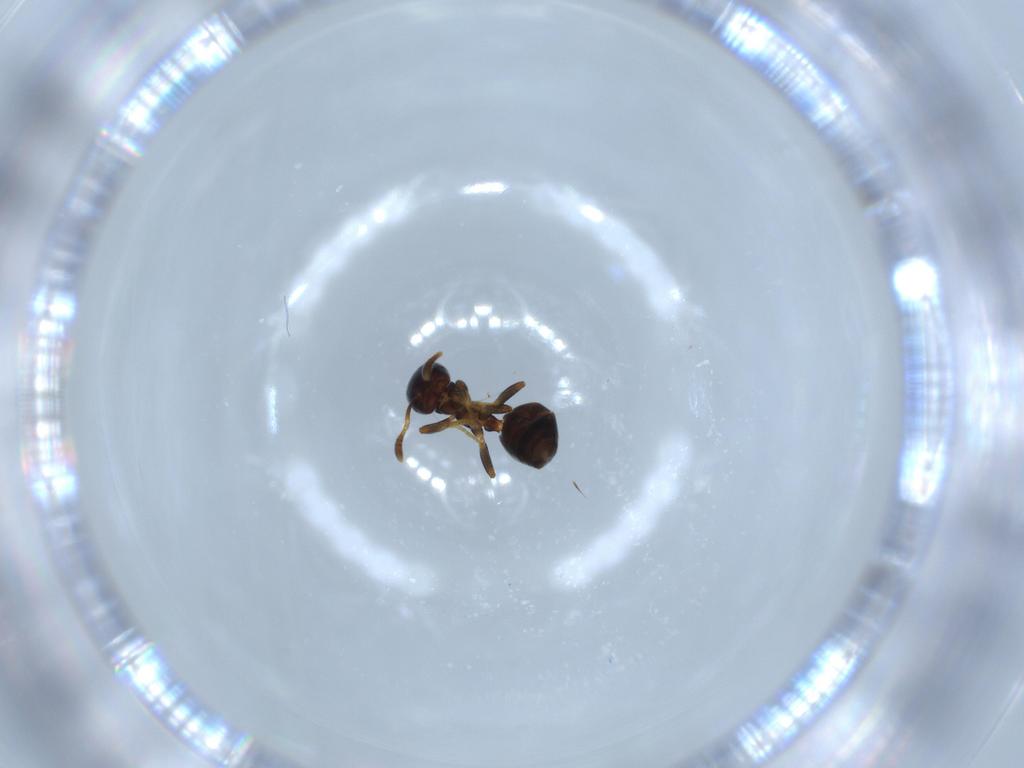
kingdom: Animalia
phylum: Arthropoda
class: Insecta
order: Hymenoptera
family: Formicidae
